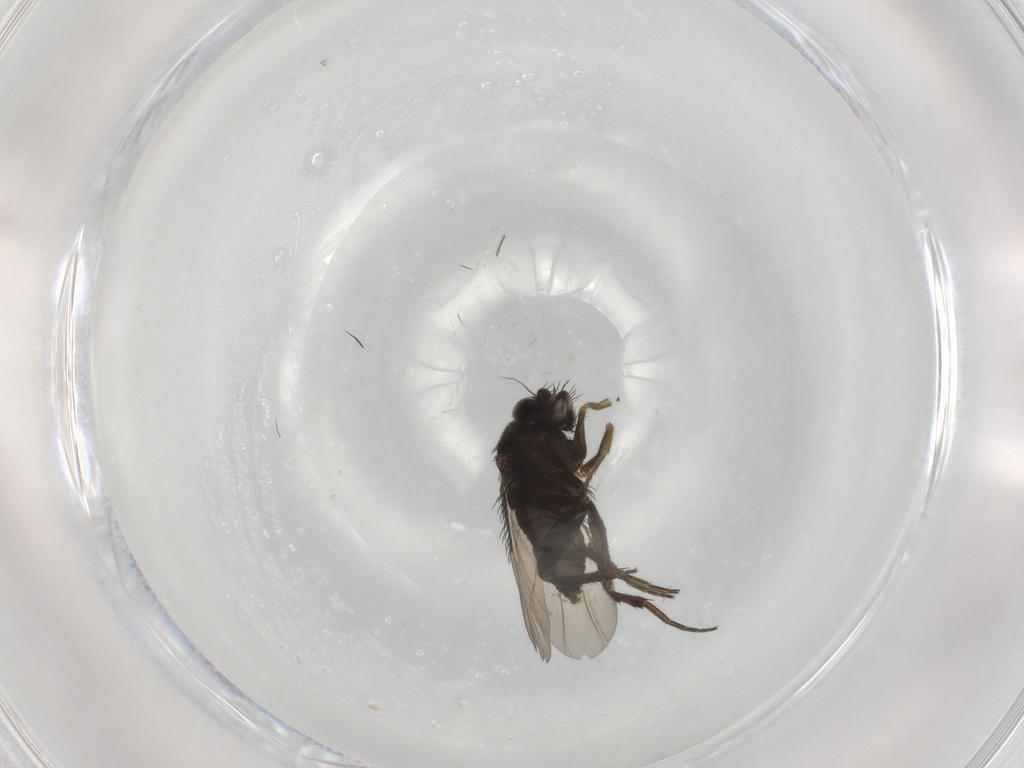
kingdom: Animalia
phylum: Arthropoda
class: Insecta
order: Diptera
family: Phoridae
